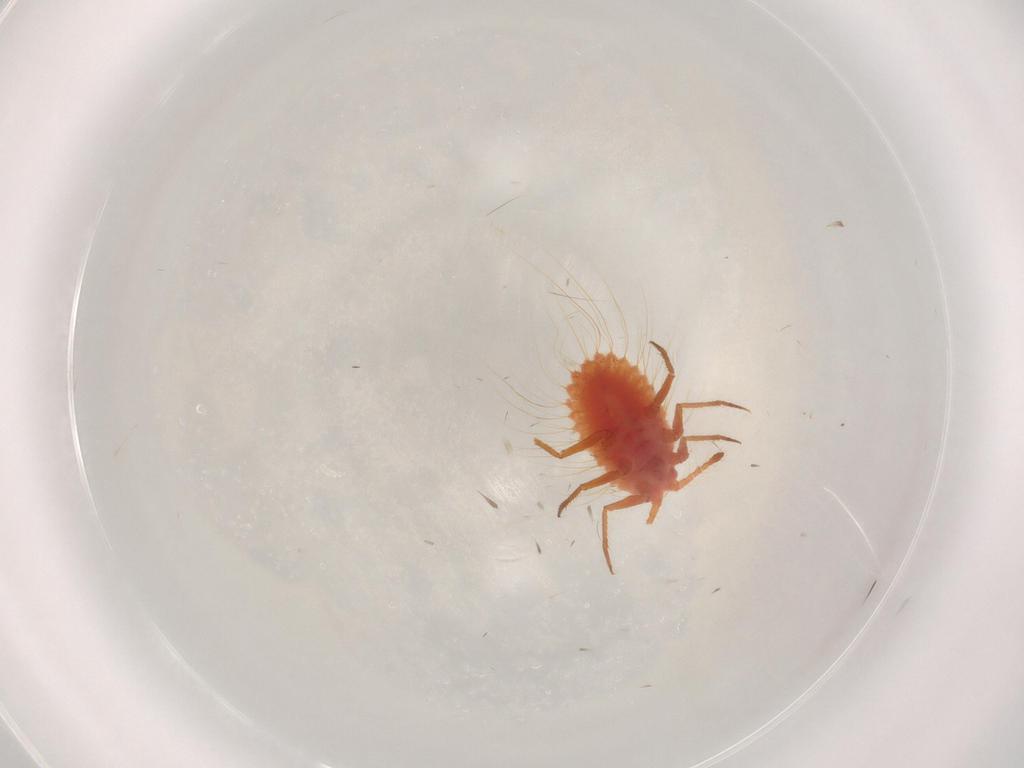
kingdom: Animalia
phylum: Arthropoda
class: Insecta
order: Hemiptera
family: Monophlebidae
